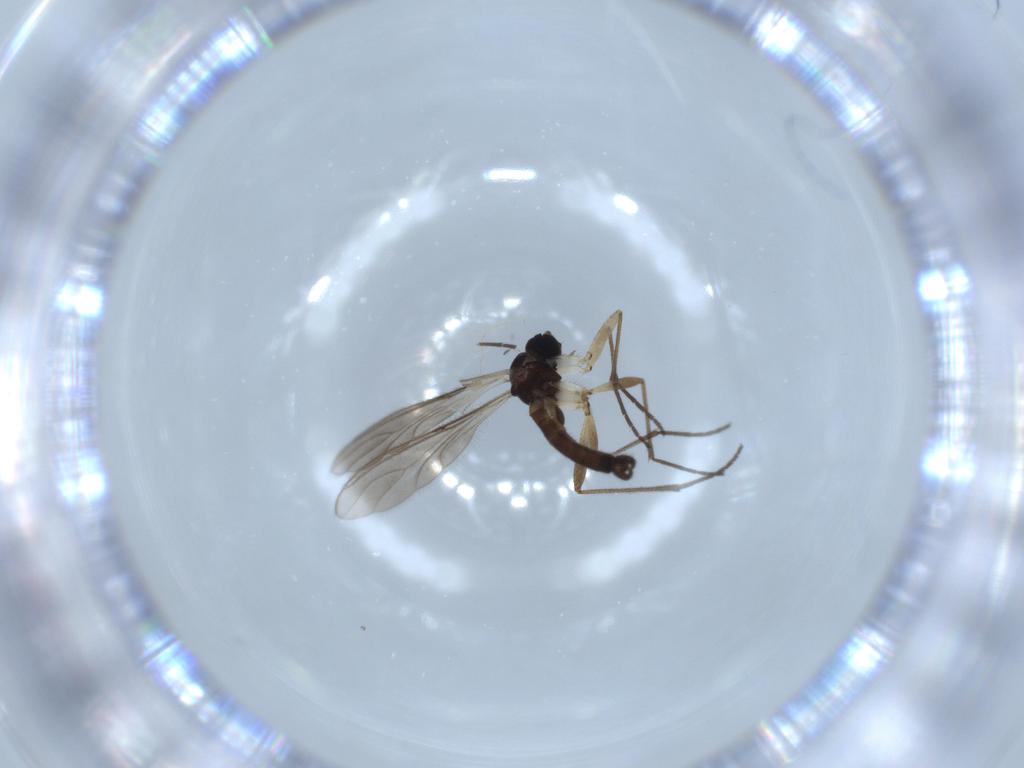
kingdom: Animalia
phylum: Arthropoda
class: Insecta
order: Diptera
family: Sciaridae
